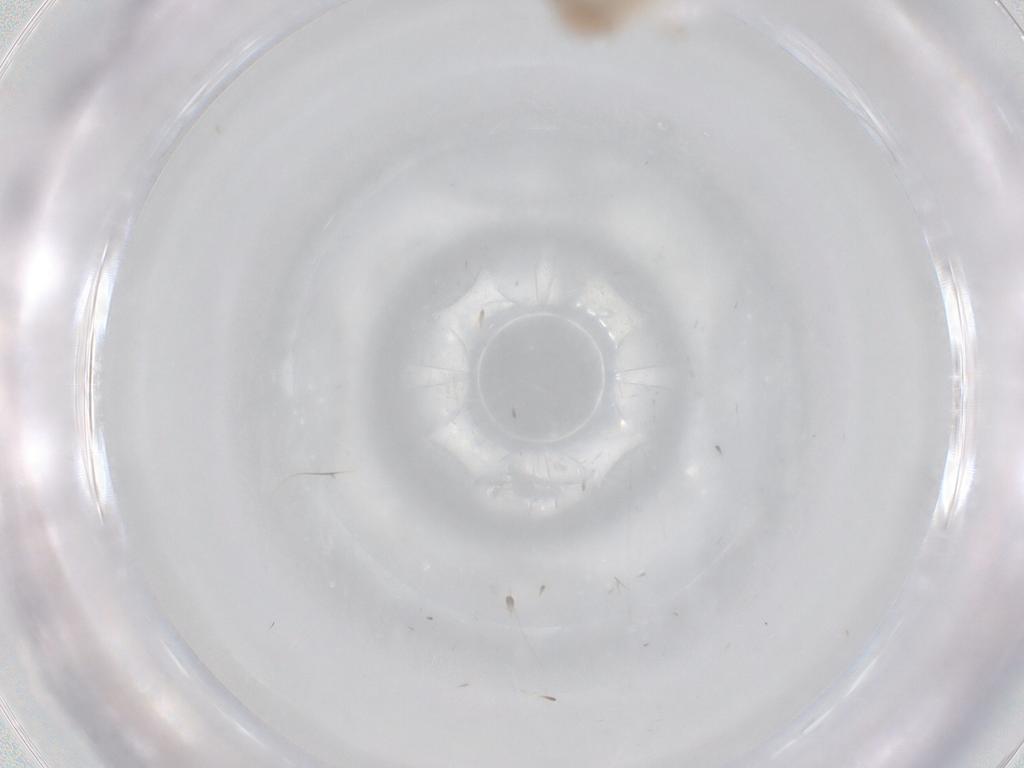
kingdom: Animalia
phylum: Arthropoda
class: Insecta
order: Diptera
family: Chironomidae
